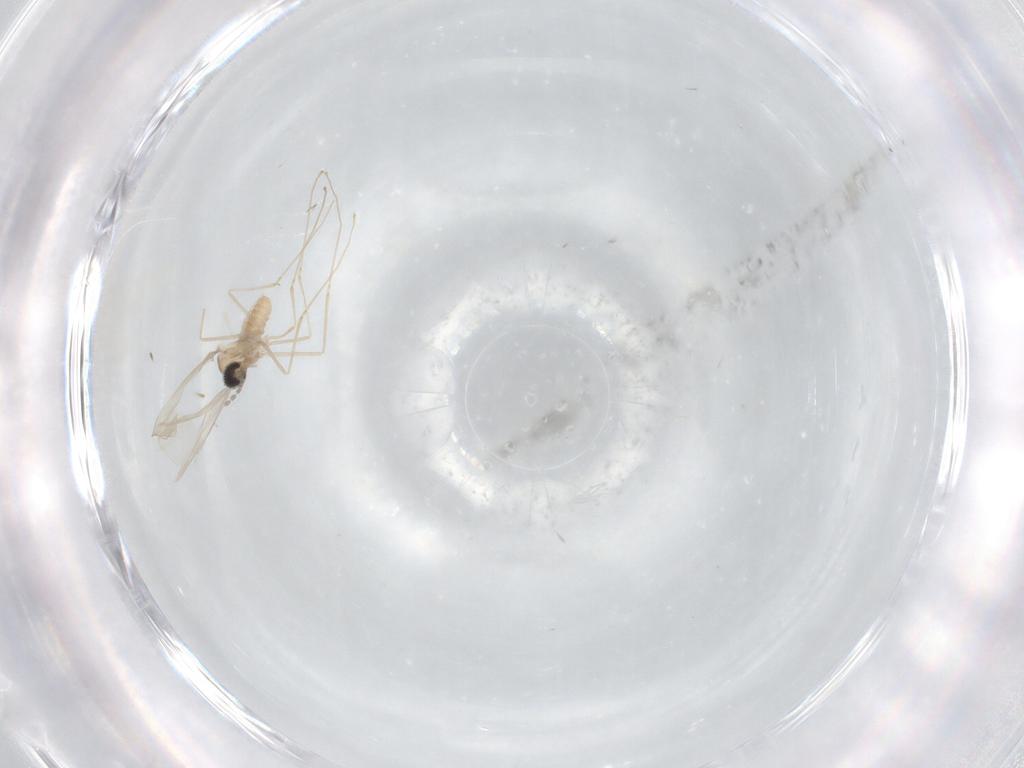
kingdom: Animalia
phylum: Arthropoda
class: Insecta
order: Diptera
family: Cecidomyiidae
